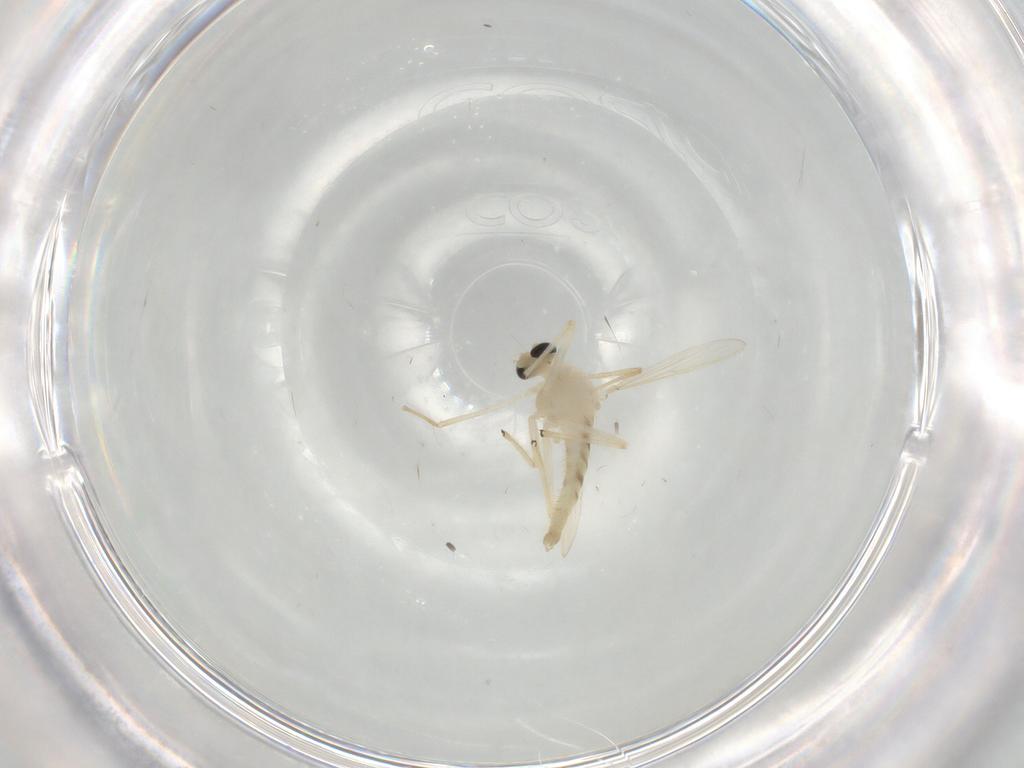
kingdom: Animalia
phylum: Arthropoda
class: Insecta
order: Diptera
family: Chironomidae
